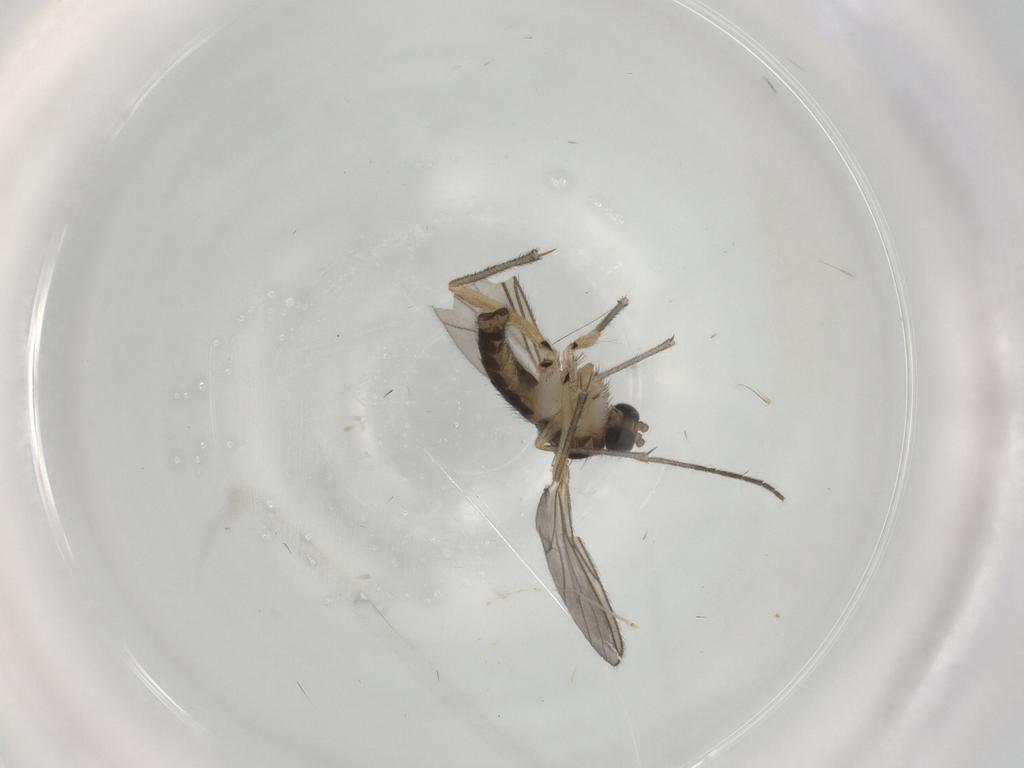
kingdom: Animalia
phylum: Arthropoda
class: Insecta
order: Diptera
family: Sciaridae
